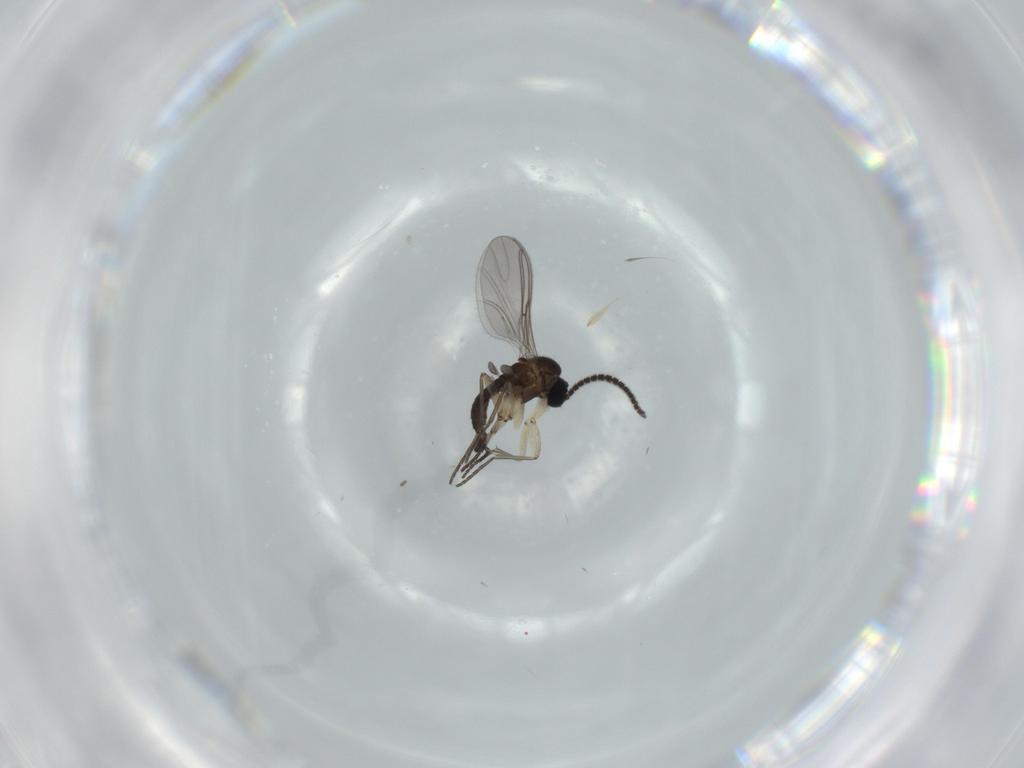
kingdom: Animalia
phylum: Arthropoda
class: Insecta
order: Diptera
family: Sciaridae
